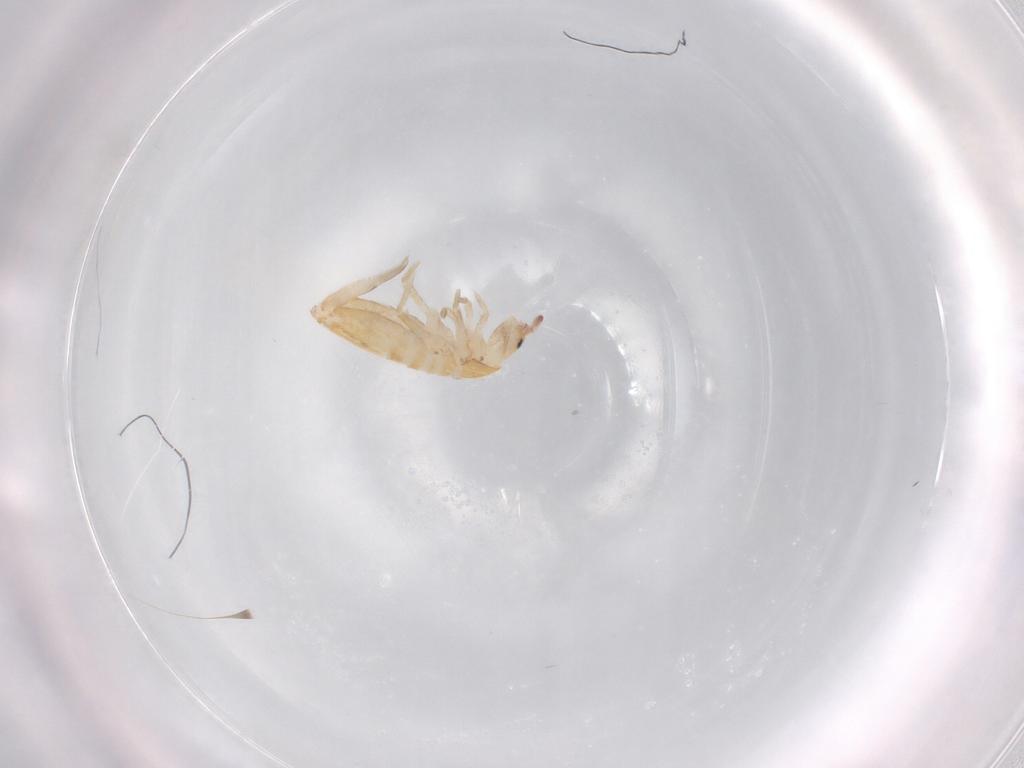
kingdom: Animalia
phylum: Arthropoda
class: Collembola
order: Entomobryomorpha
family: Entomobryidae
